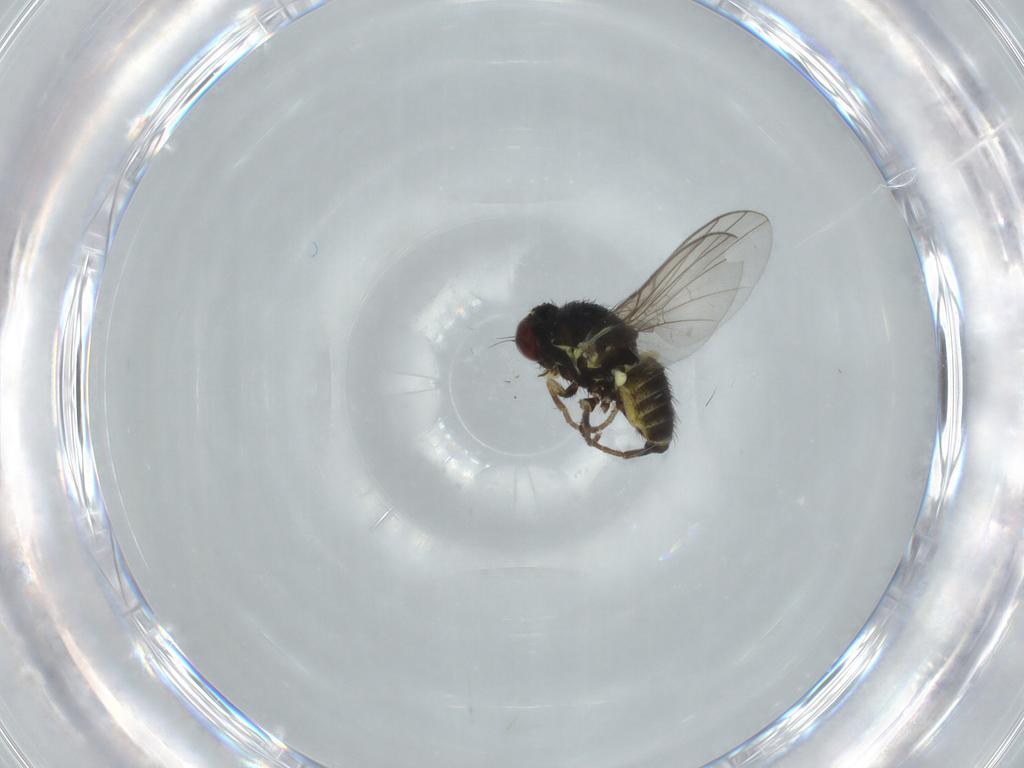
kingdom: Animalia
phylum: Arthropoda
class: Insecta
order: Diptera
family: Agromyzidae
